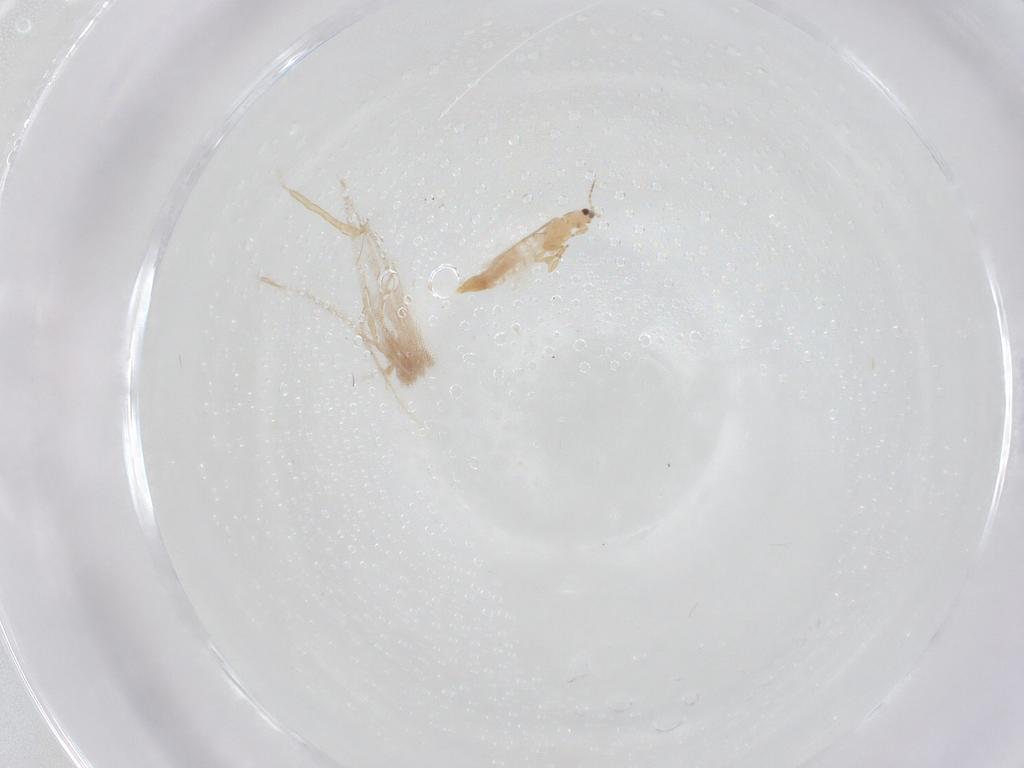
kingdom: Animalia
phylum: Arthropoda
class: Insecta
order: Thysanoptera
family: Thripidae
